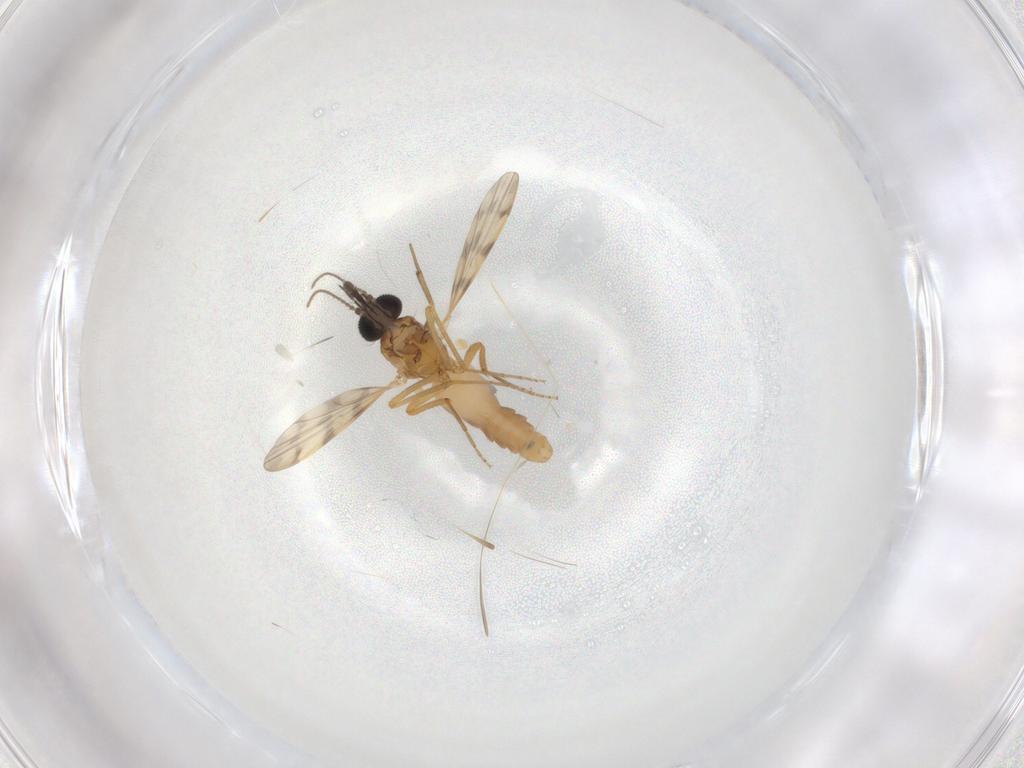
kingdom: Animalia
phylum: Arthropoda
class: Insecta
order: Diptera
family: Ceratopogonidae
